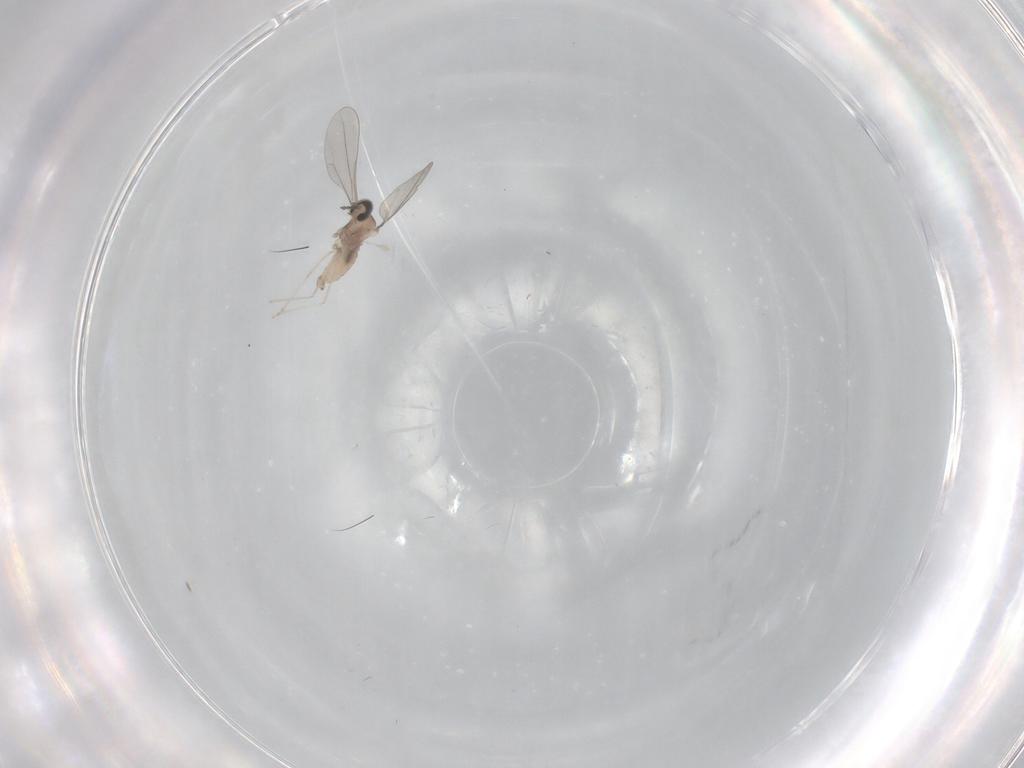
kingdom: Animalia
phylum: Arthropoda
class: Insecta
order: Diptera
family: Cecidomyiidae
